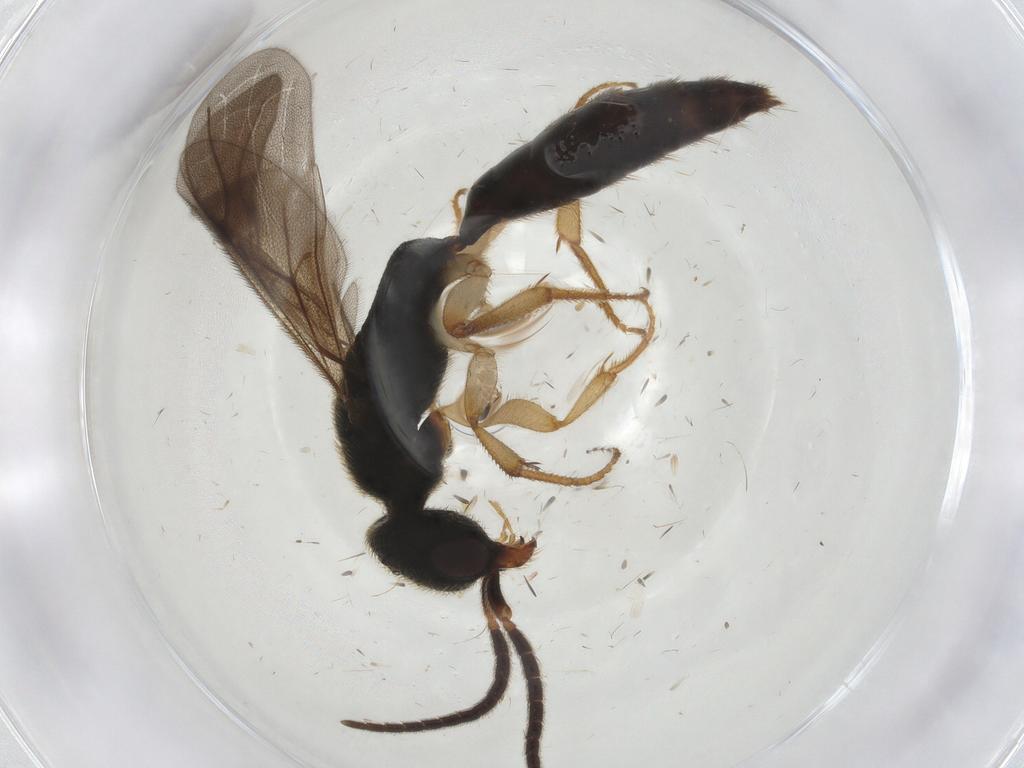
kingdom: Animalia
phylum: Arthropoda
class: Insecta
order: Hymenoptera
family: Bethylidae
